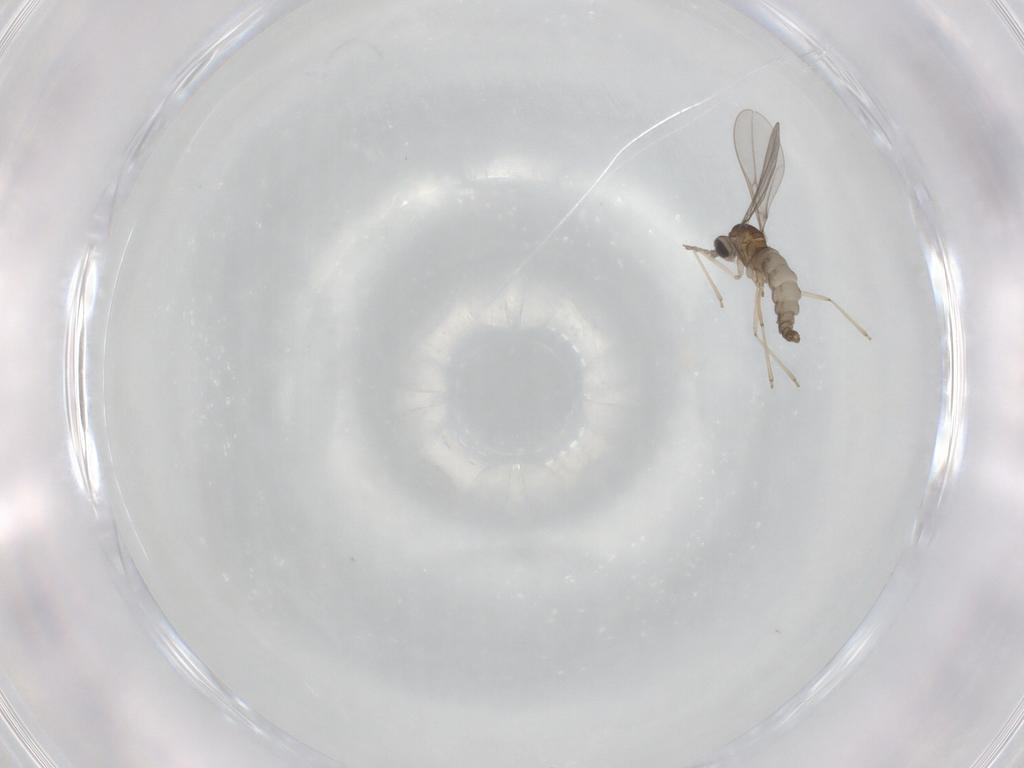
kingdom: Animalia
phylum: Arthropoda
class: Insecta
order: Diptera
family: Cecidomyiidae
